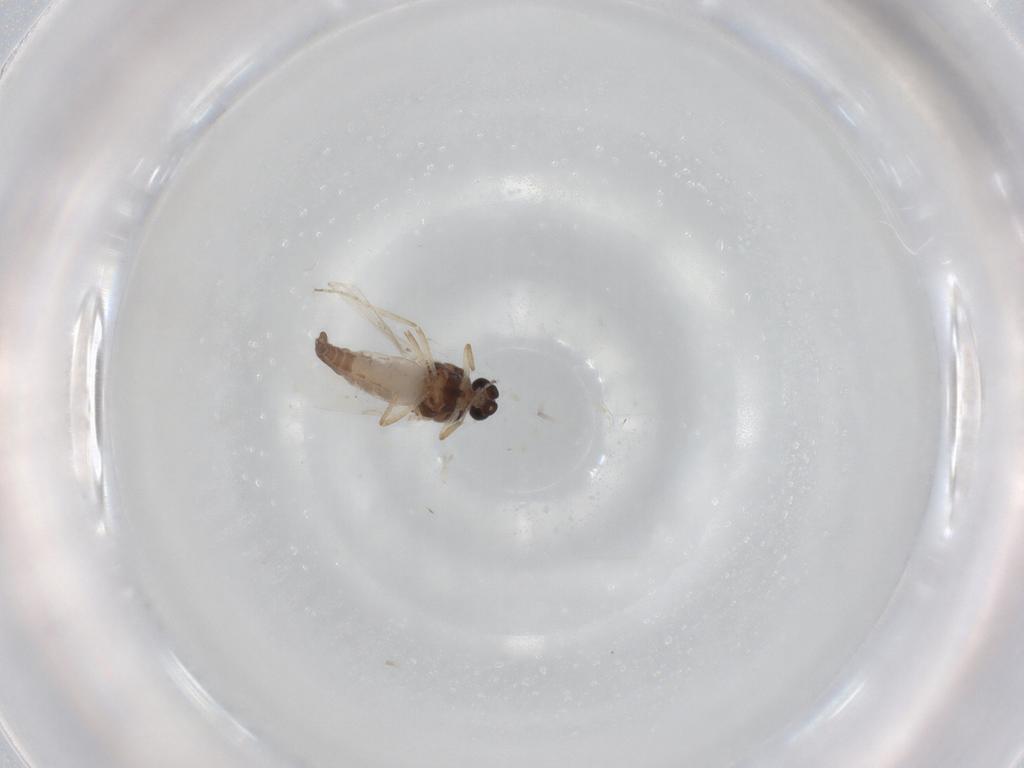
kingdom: Animalia
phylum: Arthropoda
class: Insecta
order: Diptera
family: Ceratopogonidae
